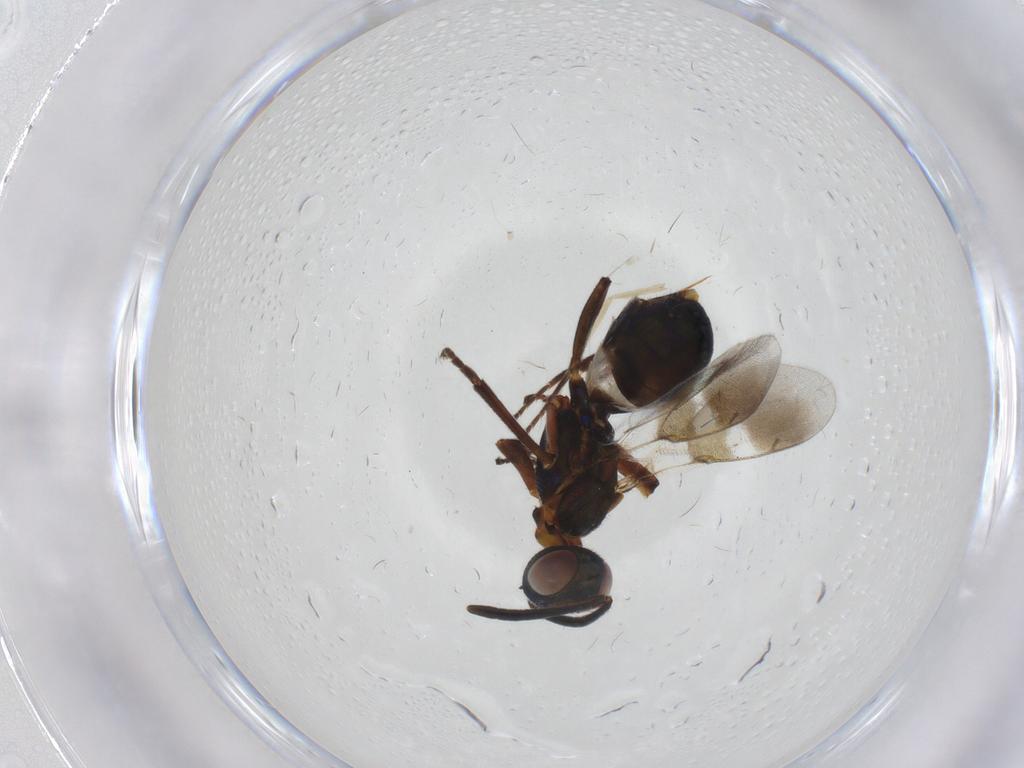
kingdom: Animalia
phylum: Arthropoda
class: Insecta
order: Hymenoptera
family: Eupelmidae
